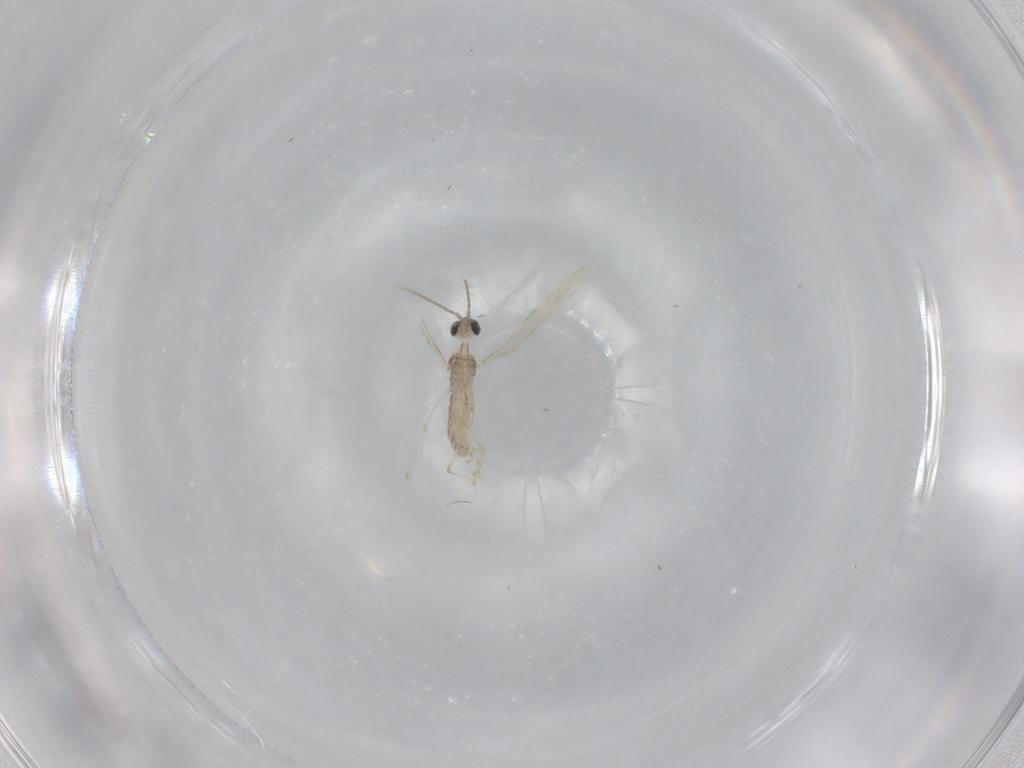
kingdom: Animalia
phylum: Arthropoda
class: Insecta
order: Diptera
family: Cecidomyiidae
